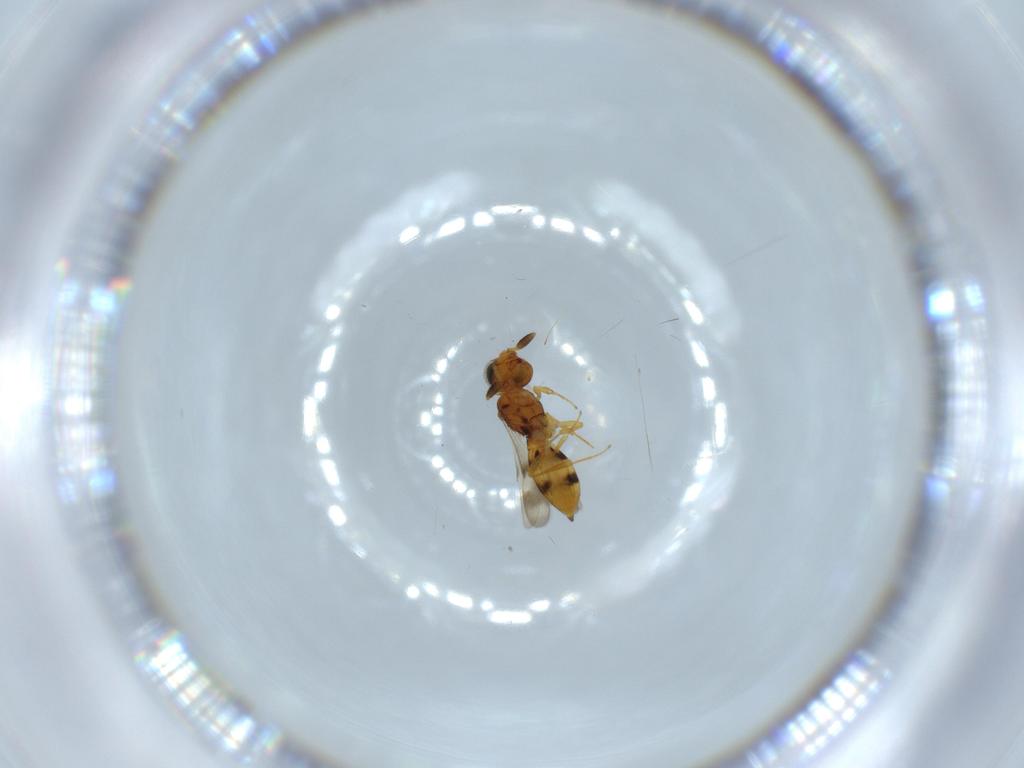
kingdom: Animalia
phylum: Arthropoda
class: Insecta
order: Hymenoptera
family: Scelionidae
